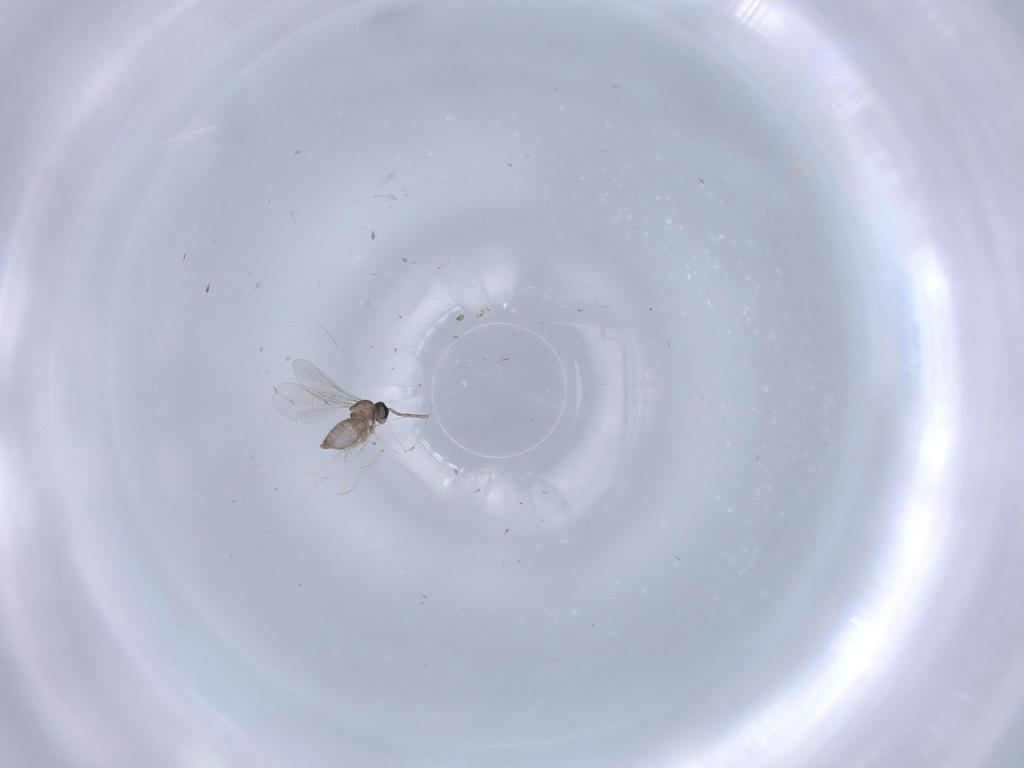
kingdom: Animalia
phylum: Arthropoda
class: Insecta
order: Diptera
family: Cecidomyiidae
